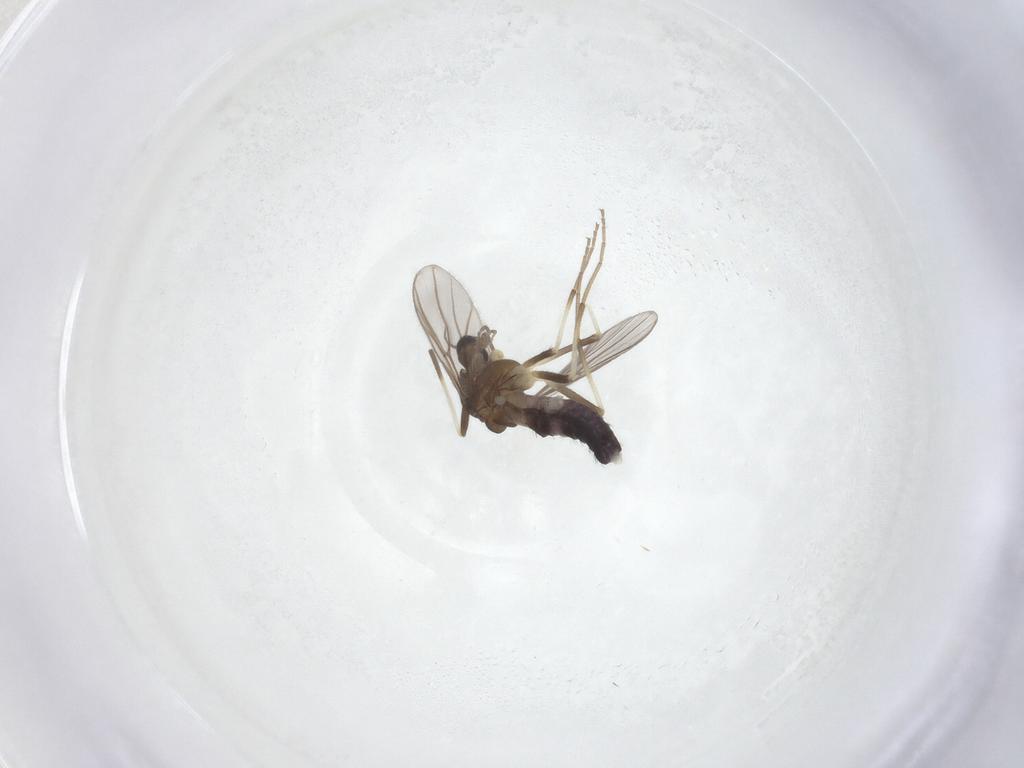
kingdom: Animalia
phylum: Arthropoda
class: Insecta
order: Diptera
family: Chironomidae
